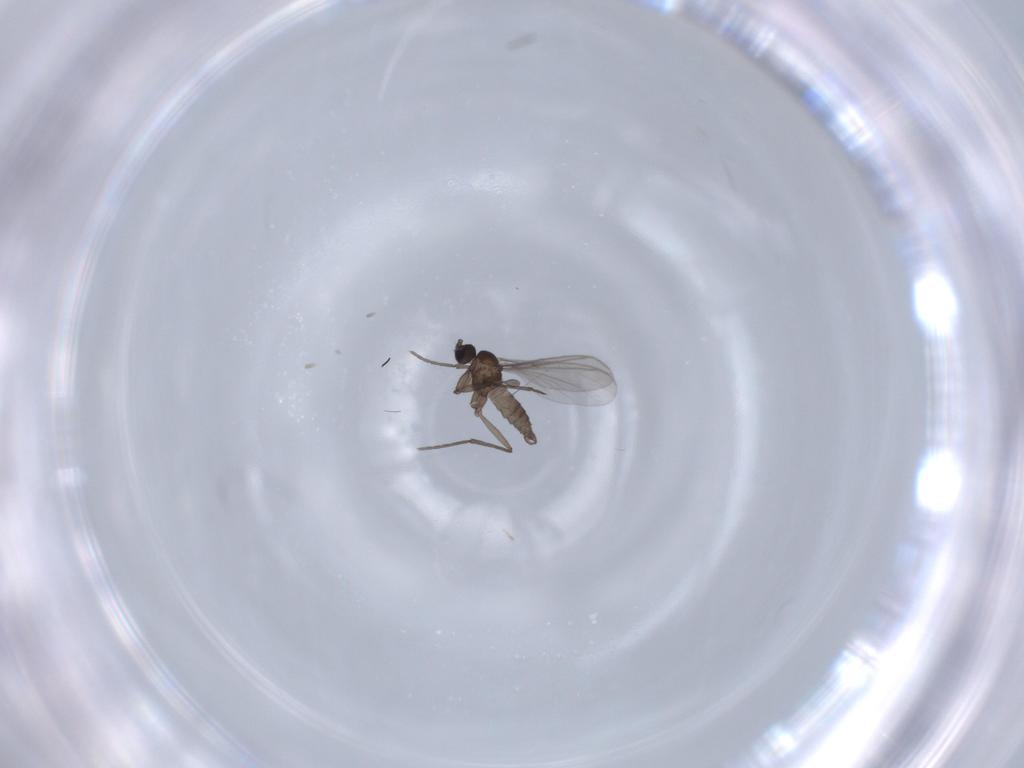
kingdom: Animalia
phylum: Arthropoda
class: Insecta
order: Diptera
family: Sciaridae
